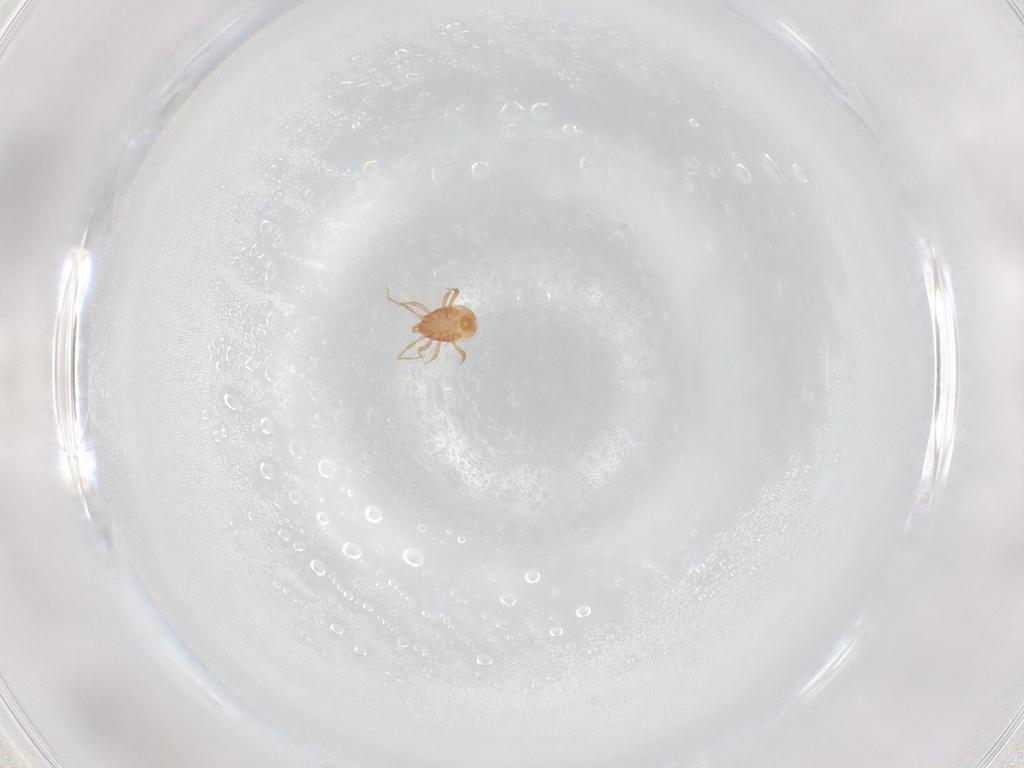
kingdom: Animalia
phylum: Arthropoda
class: Arachnida
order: Mesostigmata
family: Blattisociidae
